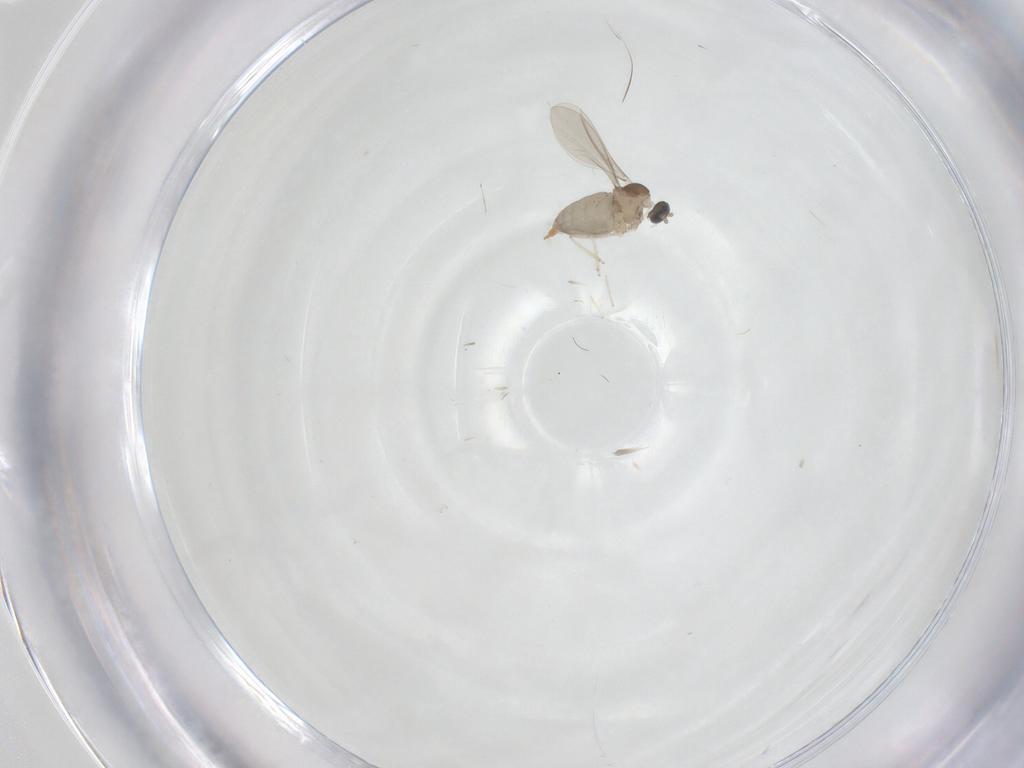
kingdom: Animalia
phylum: Arthropoda
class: Insecta
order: Diptera
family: Cecidomyiidae
